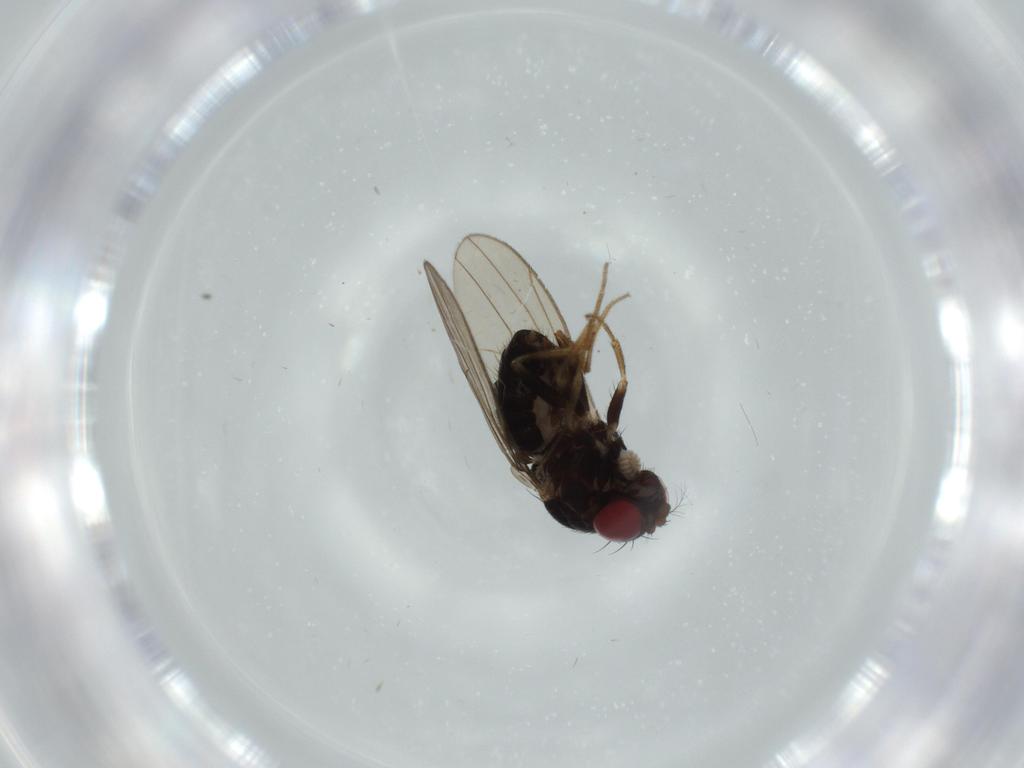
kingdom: Animalia
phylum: Arthropoda
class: Insecta
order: Diptera
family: Drosophilidae
